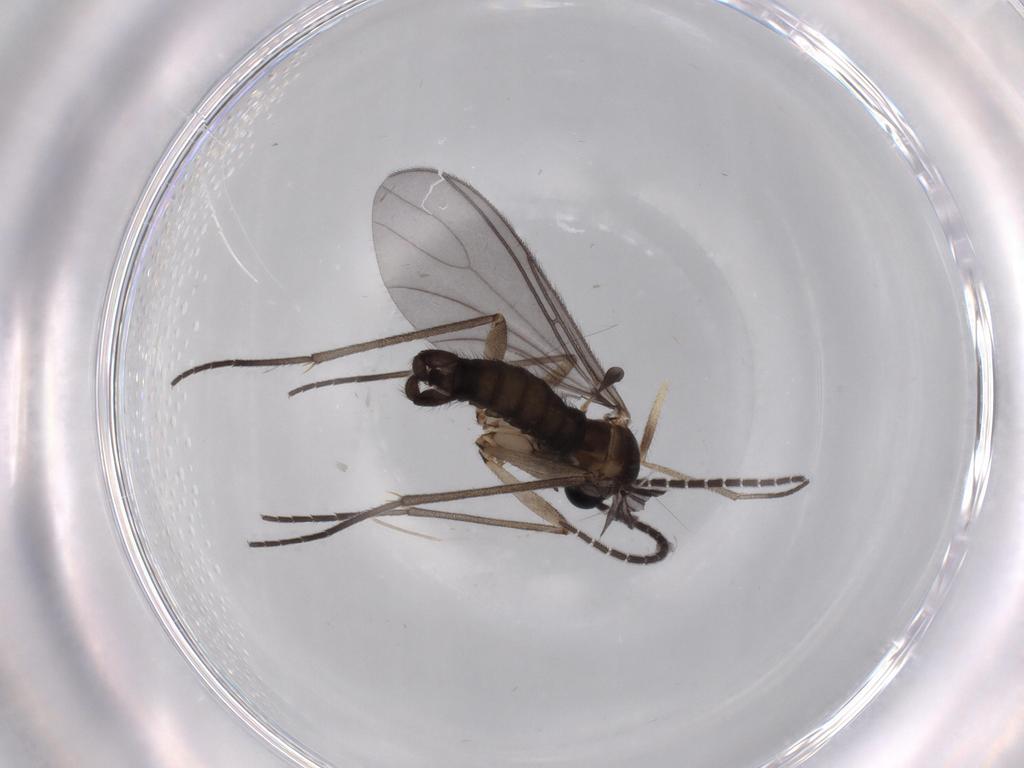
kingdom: Animalia
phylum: Arthropoda
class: Insecta
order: Diptera
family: Sciaridae
